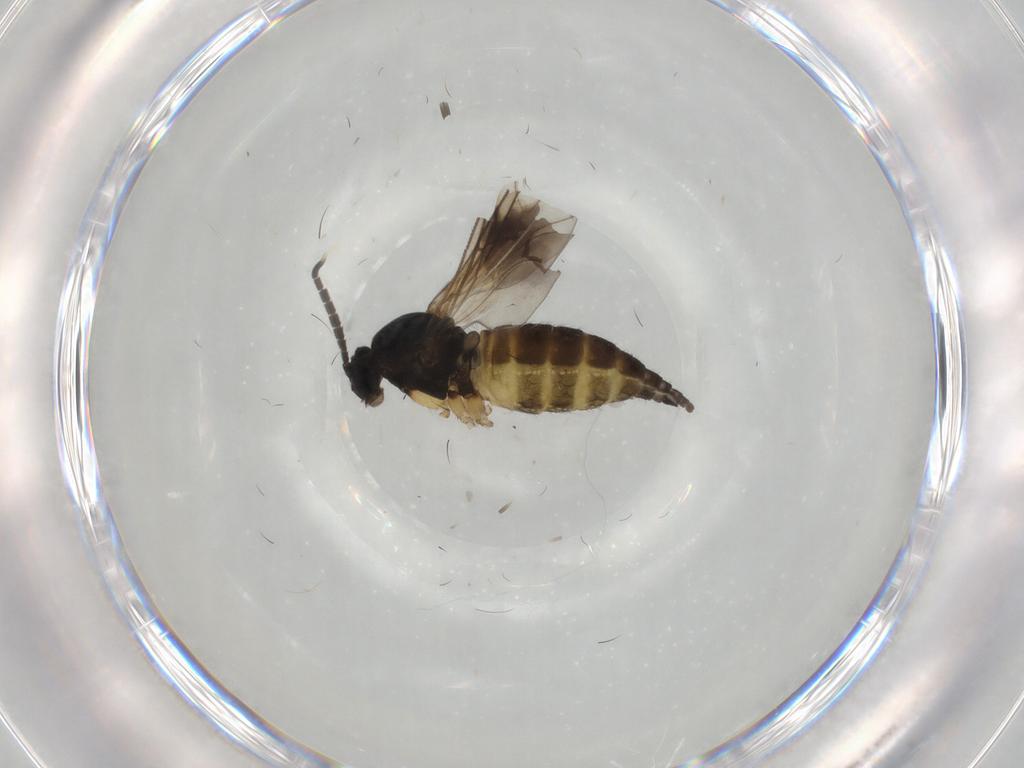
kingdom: Animalia
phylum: Arthropoda
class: Insecta
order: Diptera
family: Sciaridae
